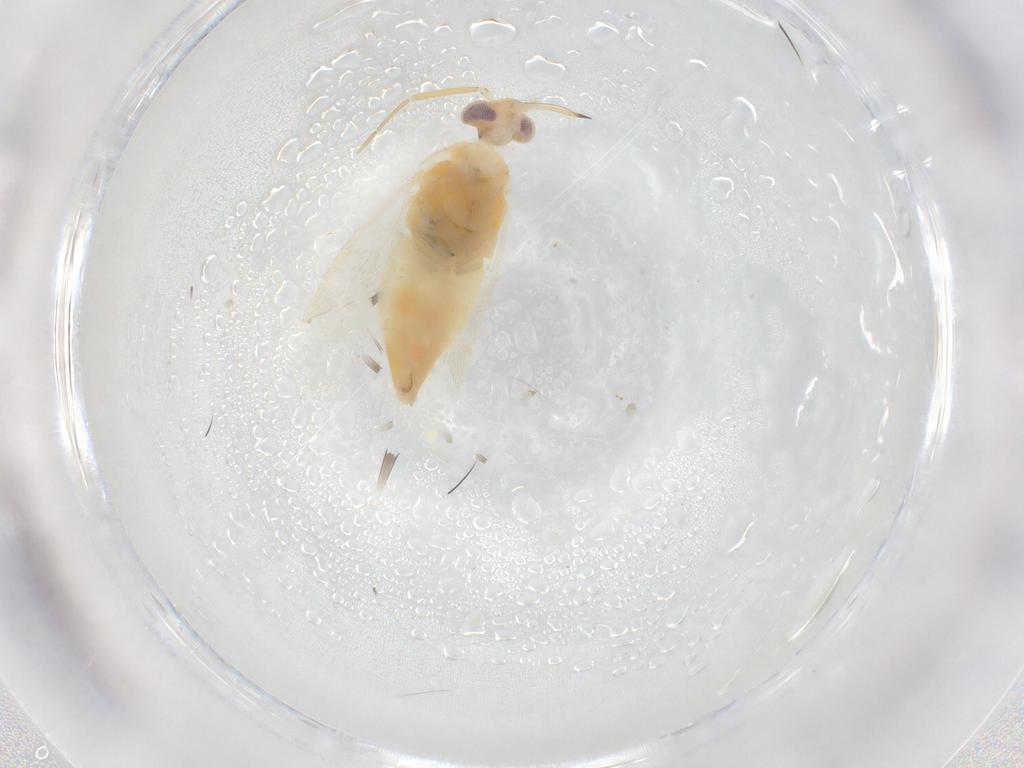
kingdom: Animalia
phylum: Arthropoda
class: Insecta
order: Hemiptera
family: Miridae
